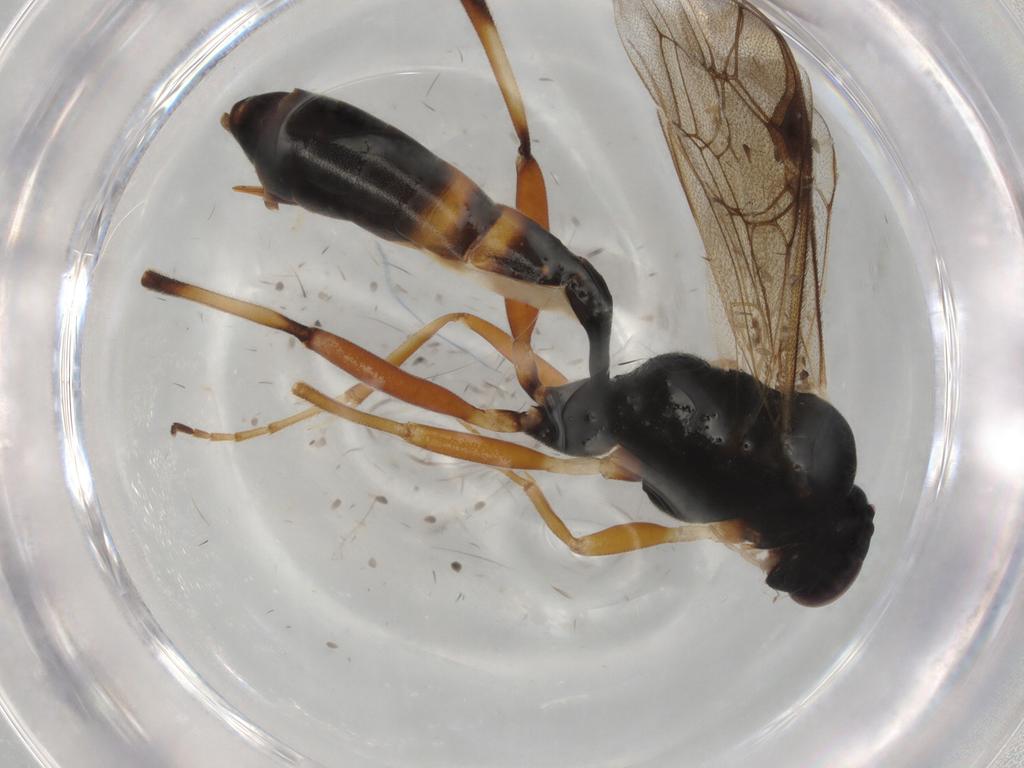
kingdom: Animalia
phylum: Arthropoda
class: Insecta
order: Hymenoptera
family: Ichneumonidae
